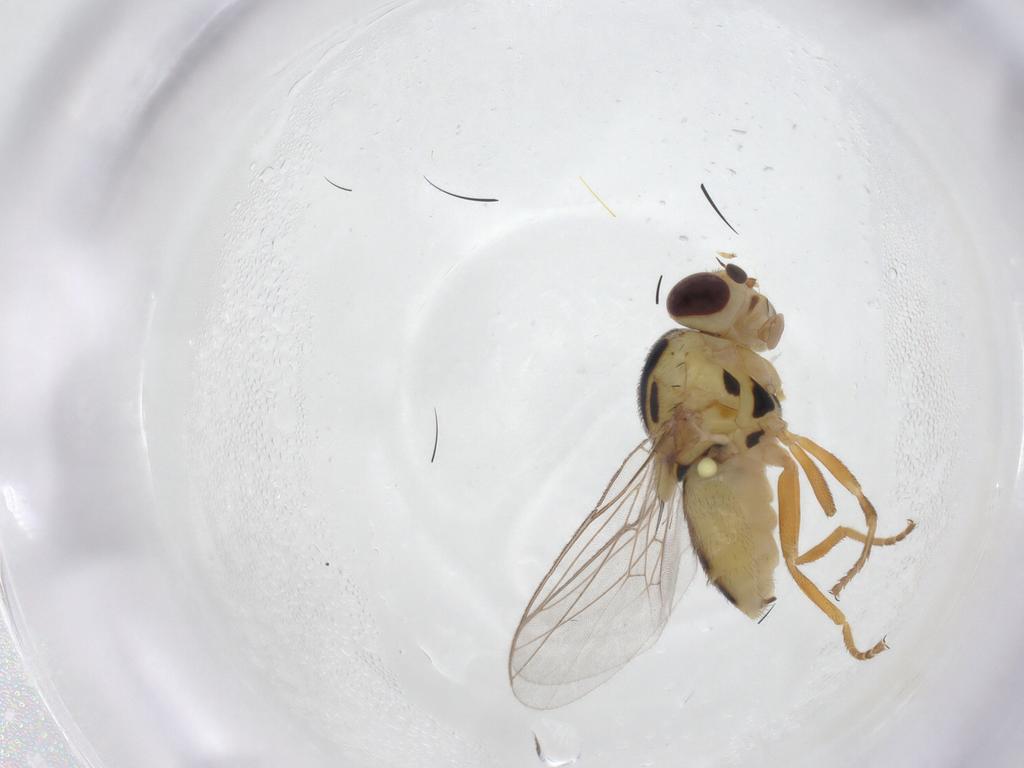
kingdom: Animalia
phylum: Arthropoda
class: Insecta
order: Diptera
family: Chloropidae
